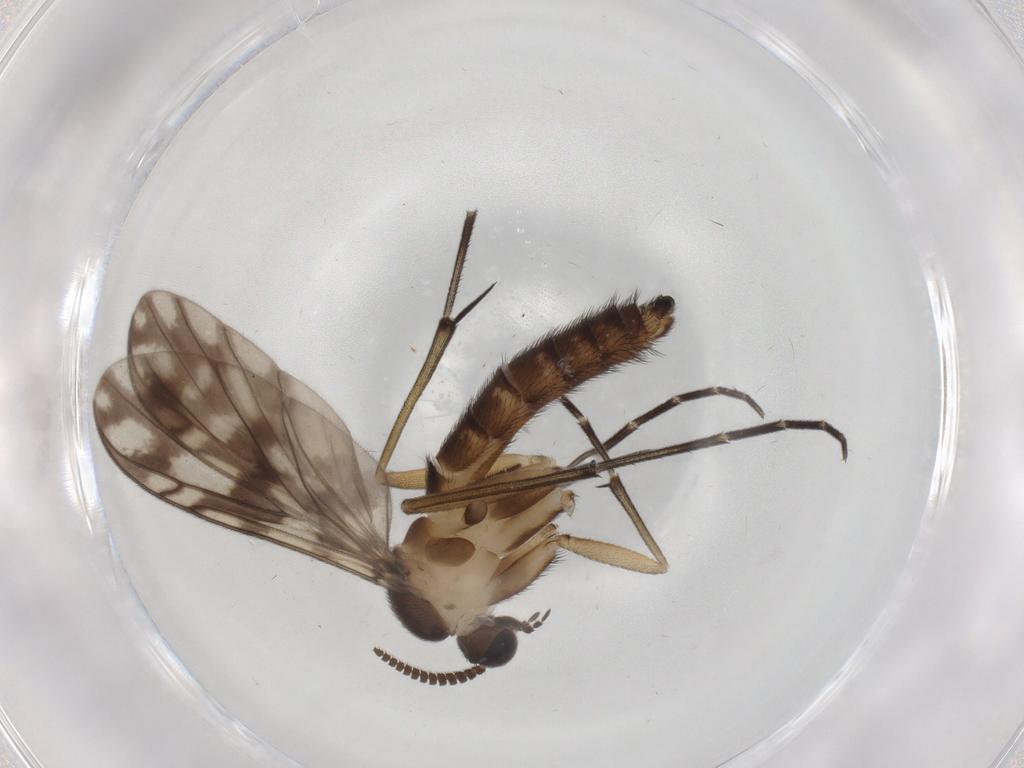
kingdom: Animalia
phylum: Arthropoda
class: Insecta
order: Diptera
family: Keroplatidae
